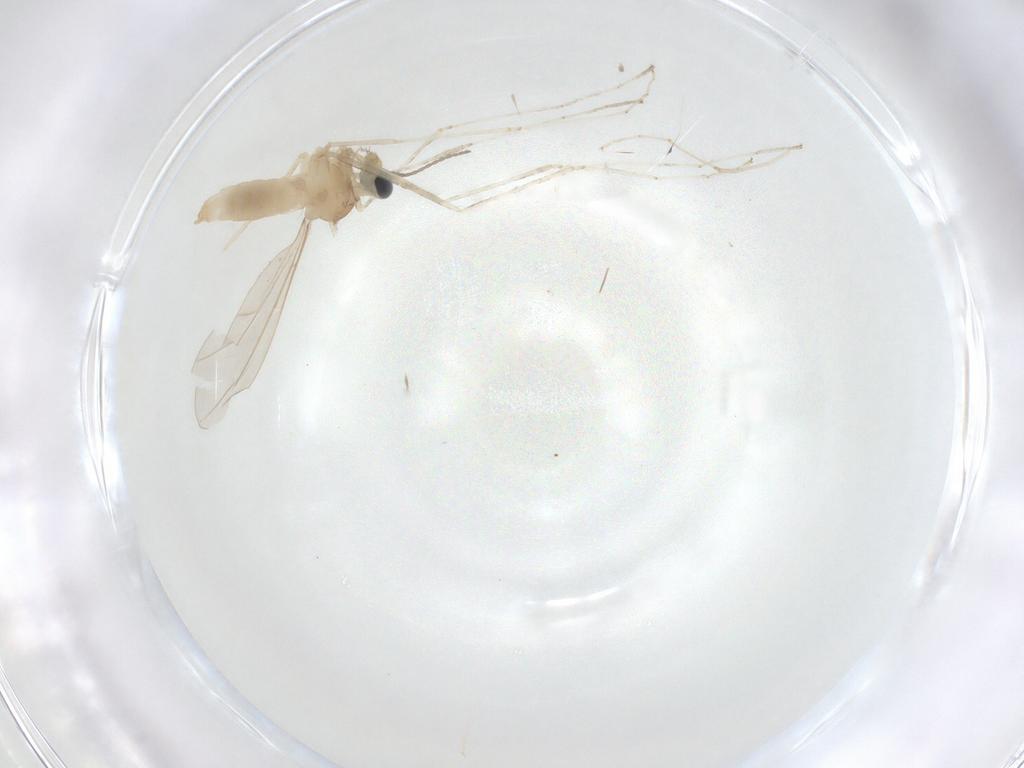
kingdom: Animalia
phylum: Arthropoda
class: Insecta
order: Diptera
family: Cecidomyiidae
